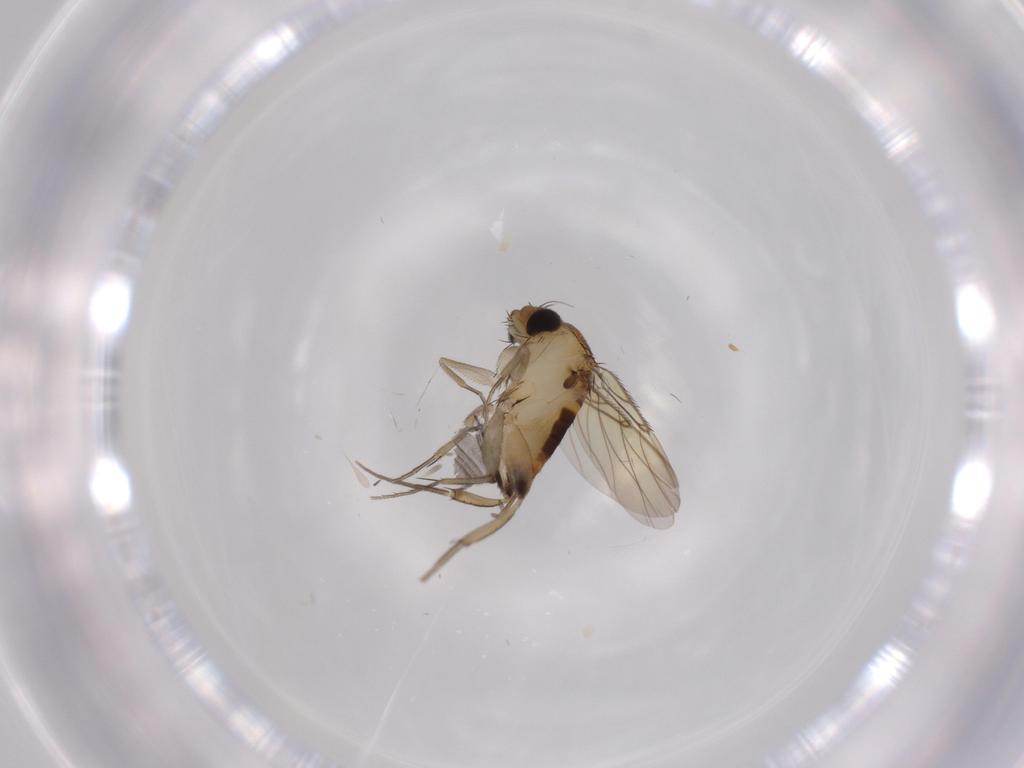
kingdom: Animalia
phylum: Arthropoda
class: Insecta
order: Diptera
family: Phoridae
